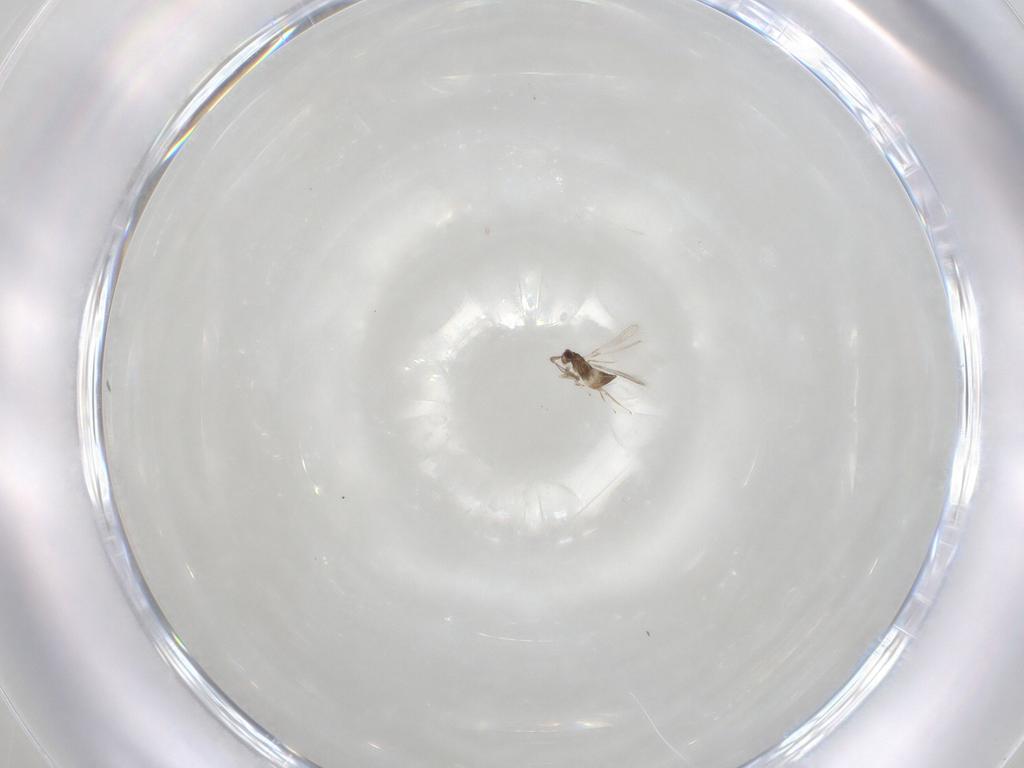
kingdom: Animalia
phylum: Arthropoda
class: Insecta
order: Hymenoptera
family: Mymaridae
